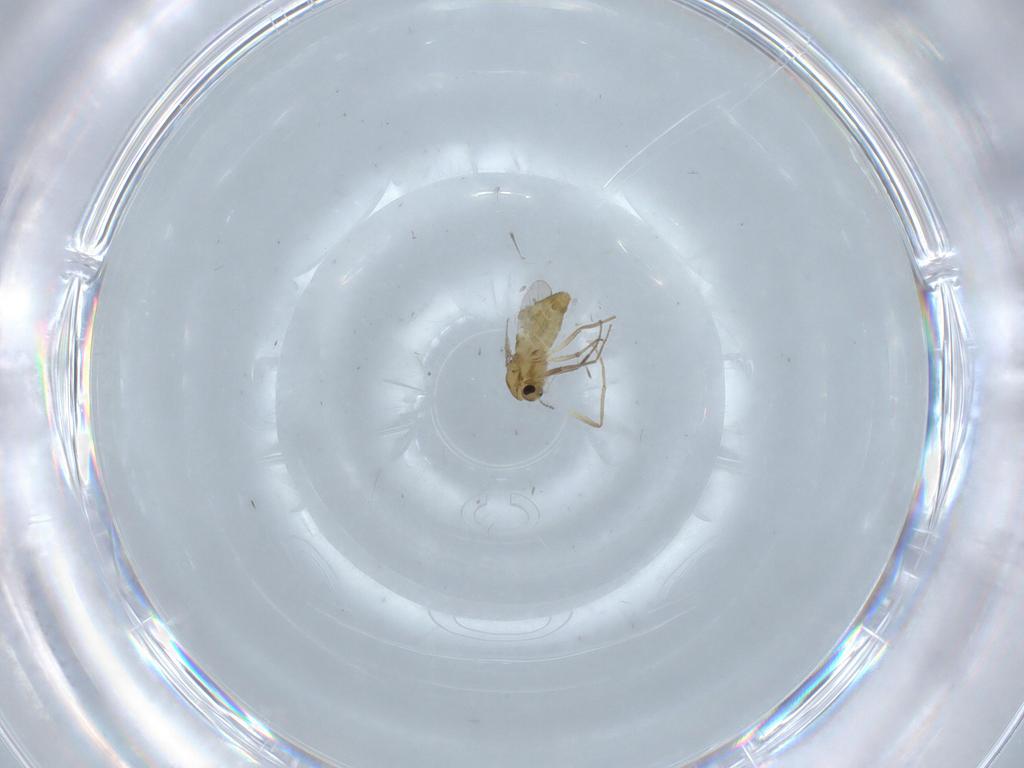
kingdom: Animalia
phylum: Arthropoda
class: Insecta
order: Diptera
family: Chironomidae
